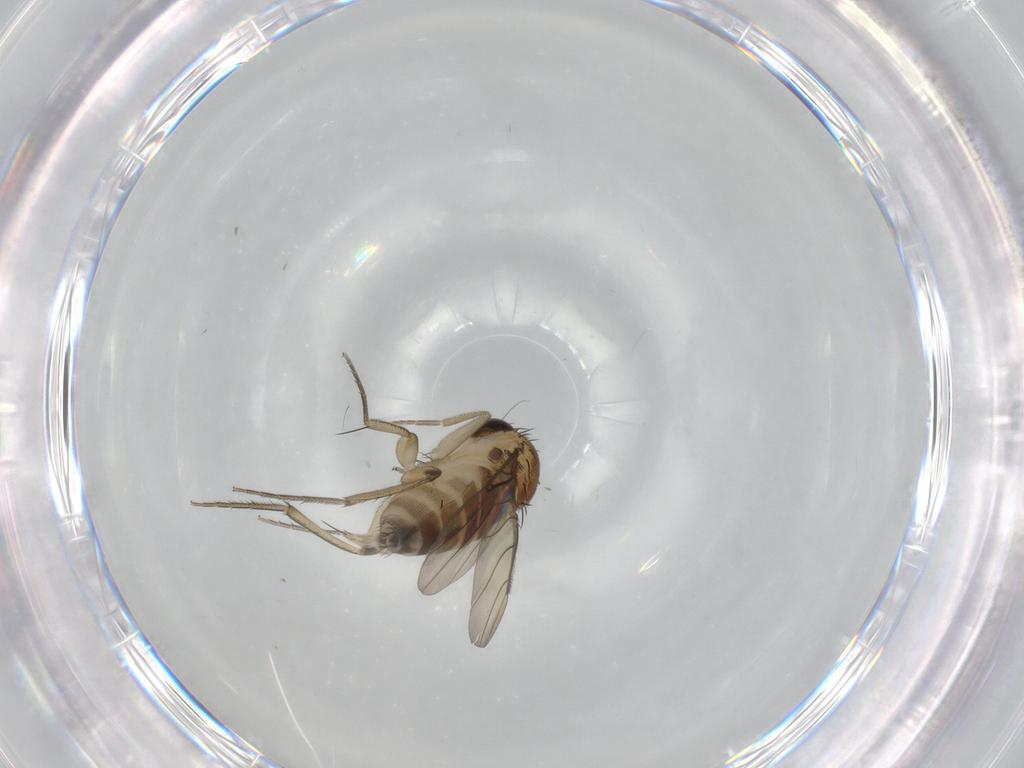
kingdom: Animalia
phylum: Arthropoda
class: Insecta
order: Diptera
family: Phoridae
